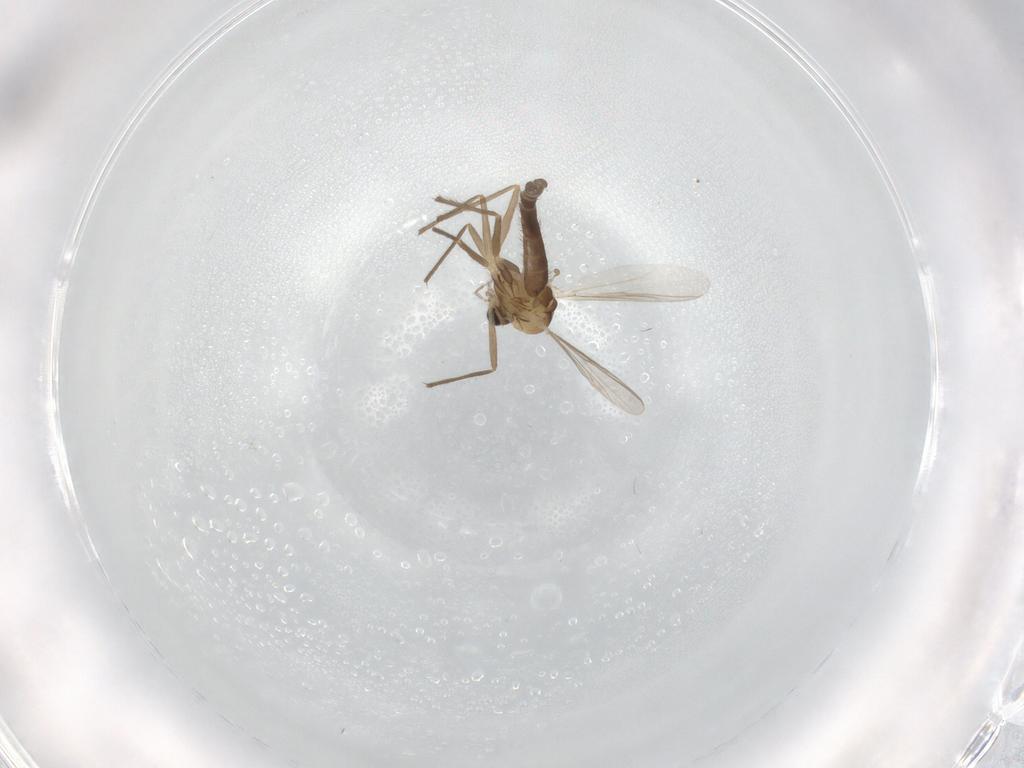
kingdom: Animalia
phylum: Arthropoda
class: Insecta
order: Diptera
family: Chironomidae
